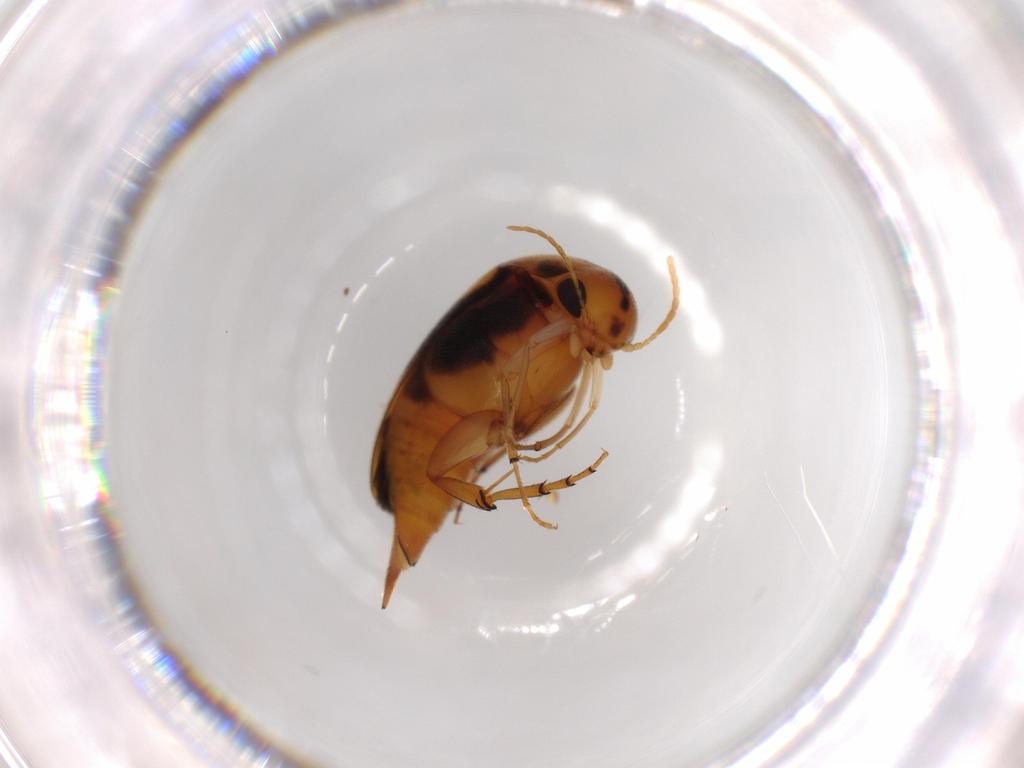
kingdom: Animalia
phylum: Arthropoda
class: Insecta
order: Coleoptera
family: Mordellidae
